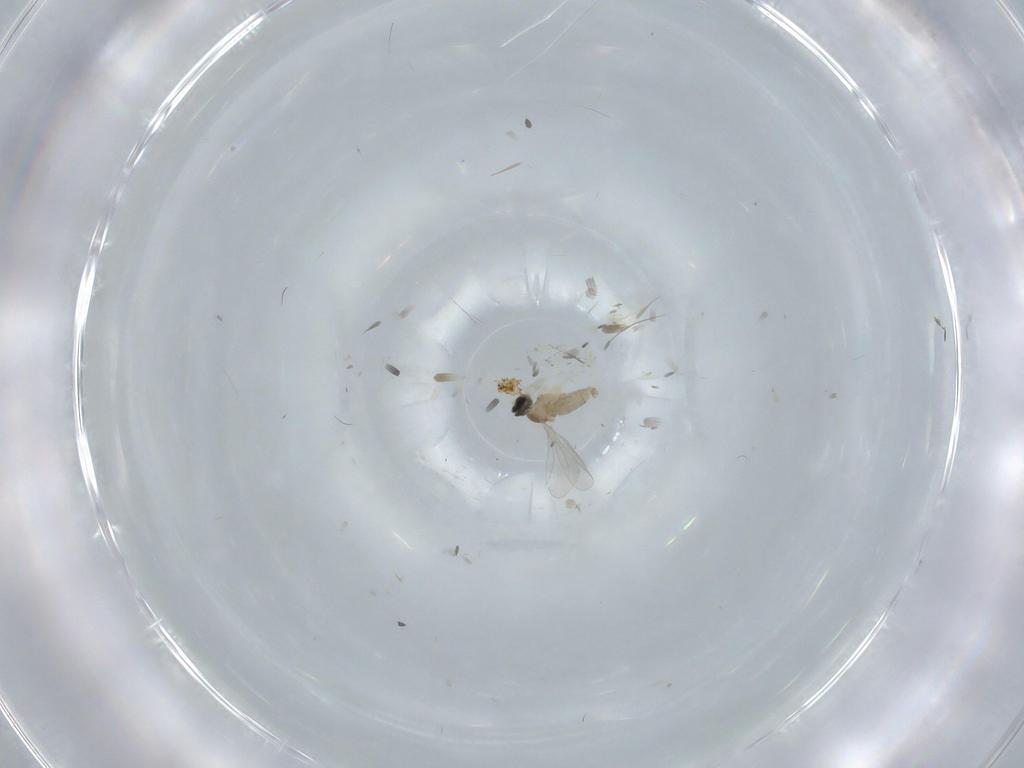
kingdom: Animalia
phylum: Arthropoda
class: Insecta
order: Diptera
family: Cecidomyiidae
